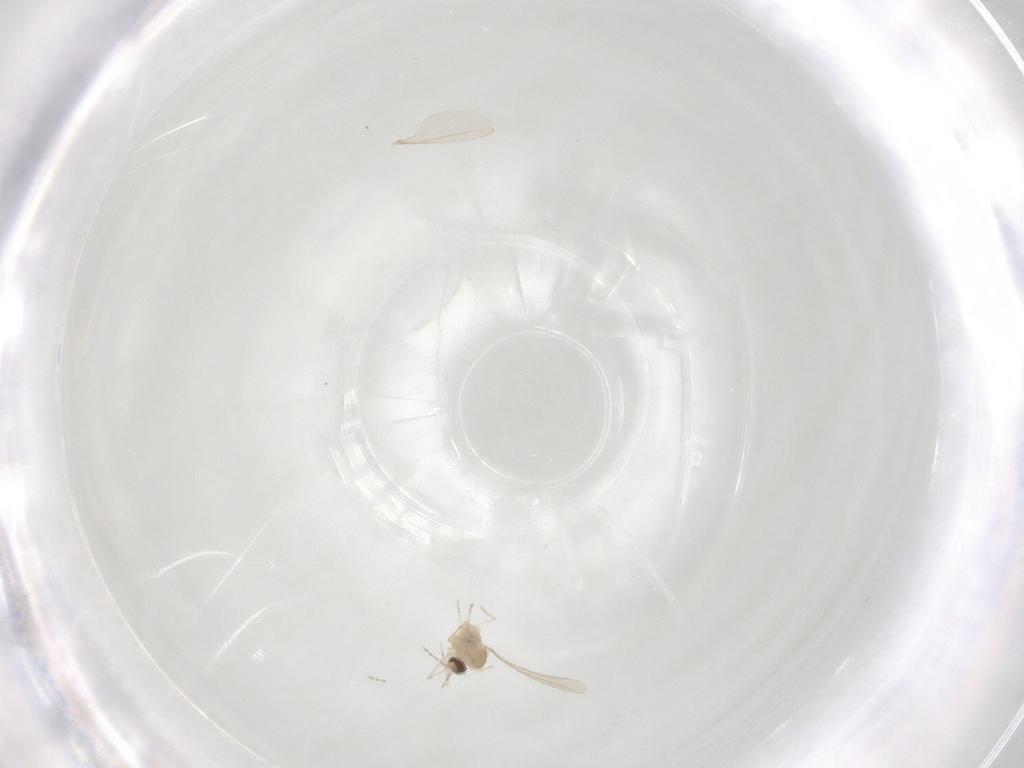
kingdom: Animalia
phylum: Arthropoda
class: Insecta
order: Diptera
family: Cecidomyiidae
